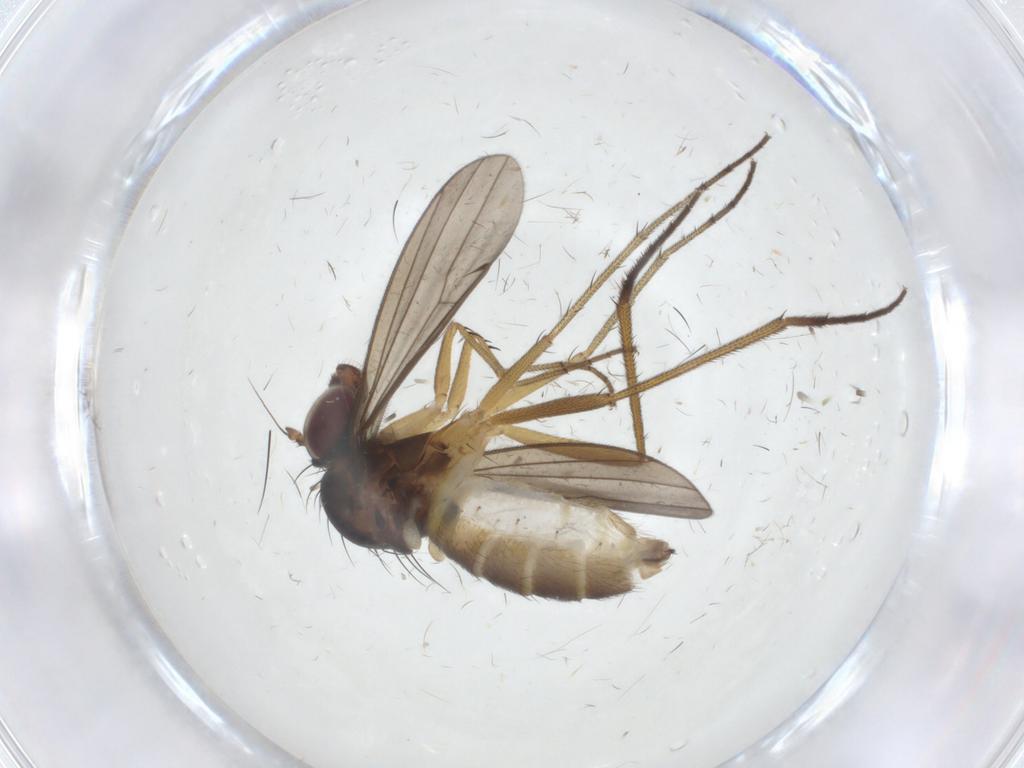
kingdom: Animalia
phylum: Arthropoda
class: Insecta
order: Diptera
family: Dolichopodidae
